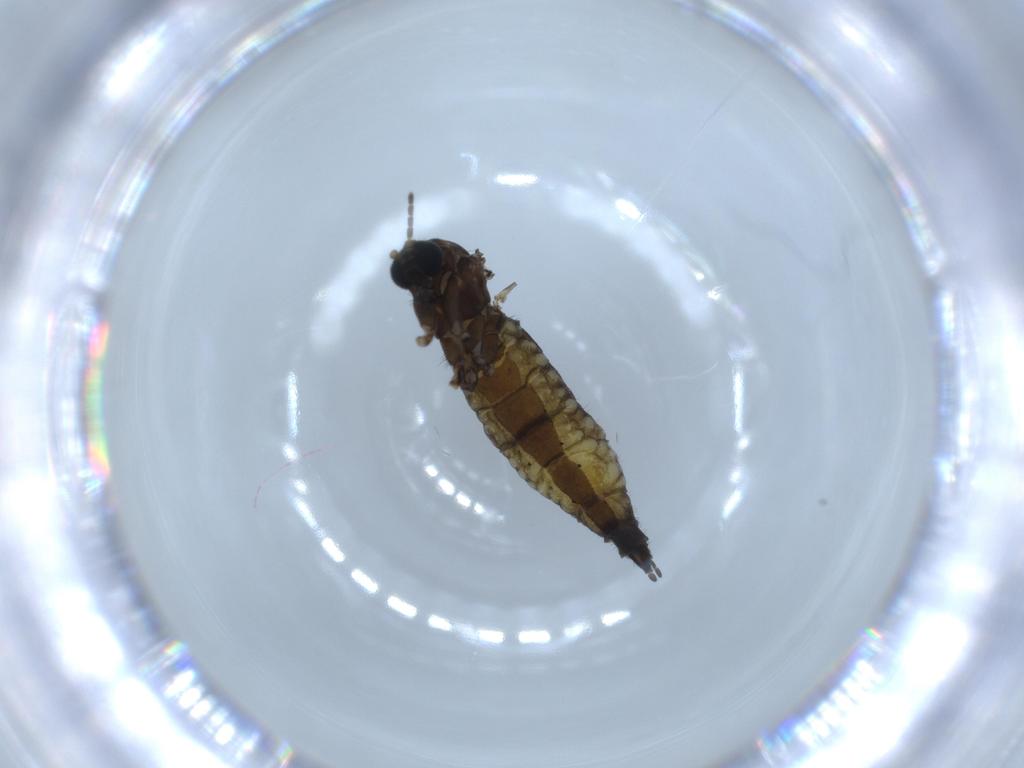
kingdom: Animalia
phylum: Arthropoda
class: Insecta
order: Diptera
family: Sciaridae
